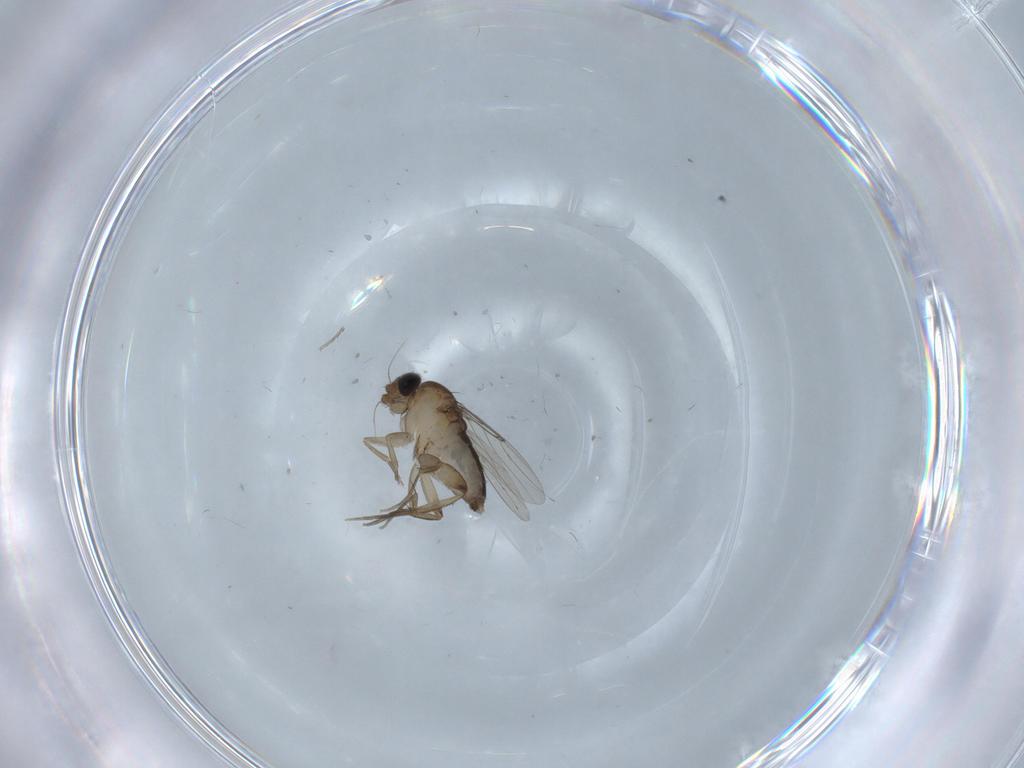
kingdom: Animalia
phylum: Arthropoda
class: Insecta
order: Diptera
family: Phoridae
